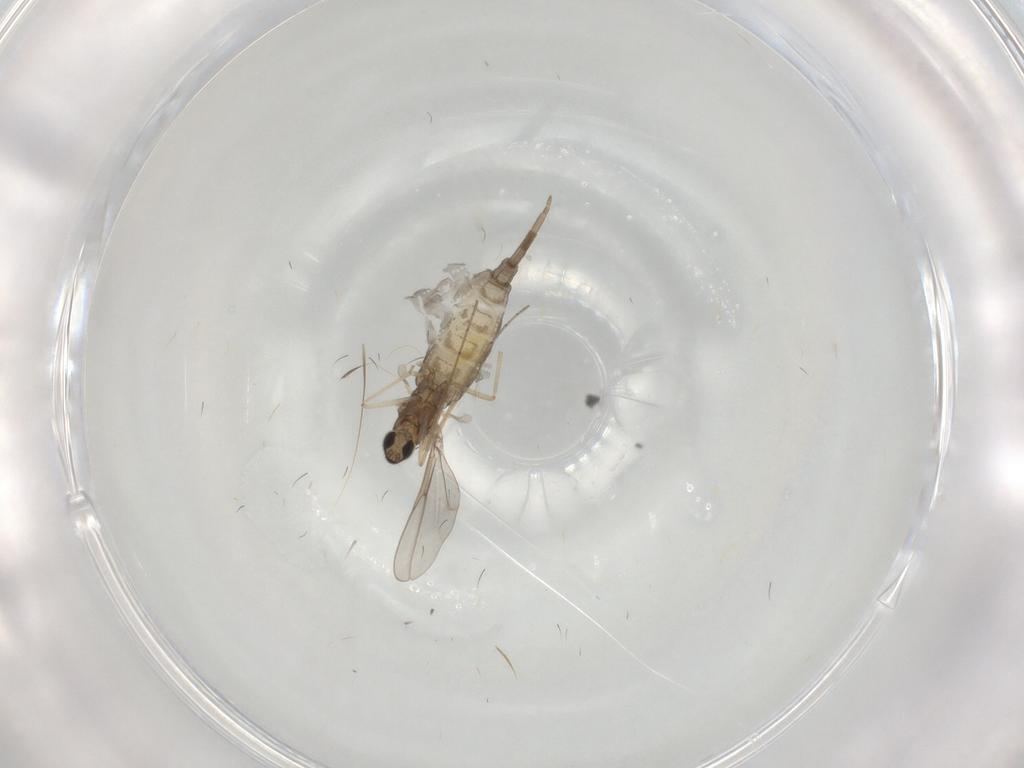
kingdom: Animalia
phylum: Arthropoda
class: Insecta
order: Diptera
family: Cecidomyiidae
